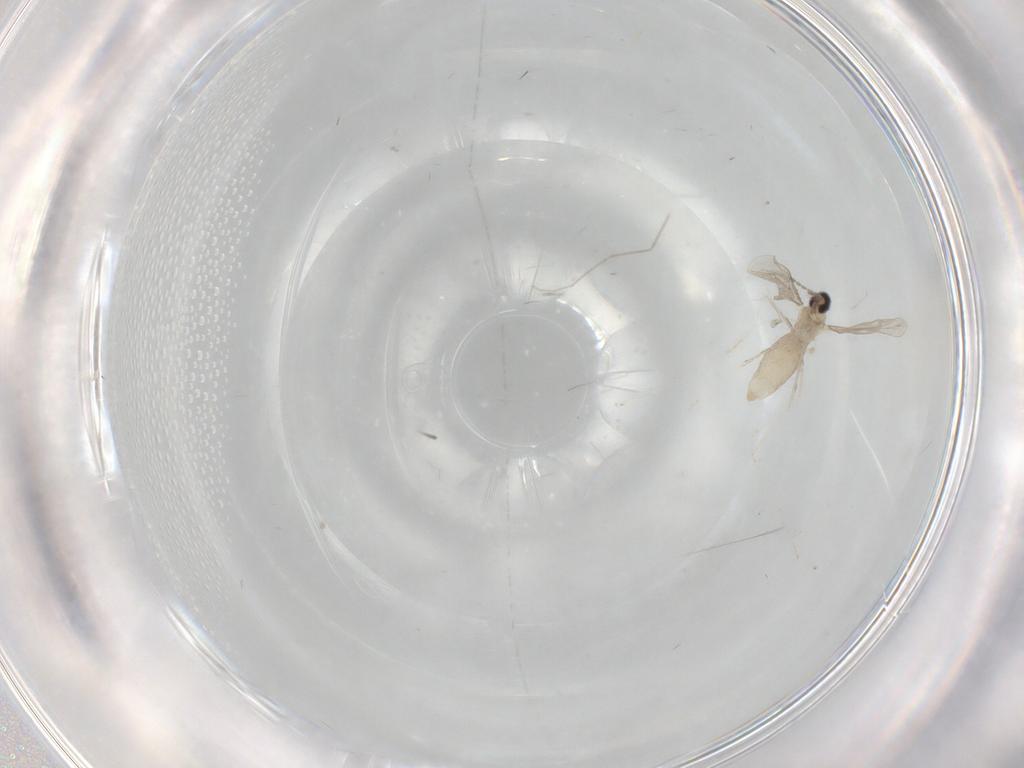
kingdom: Animalia
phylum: Arthropoda
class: Insecta
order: Diptera
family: Cecidomyiidae
